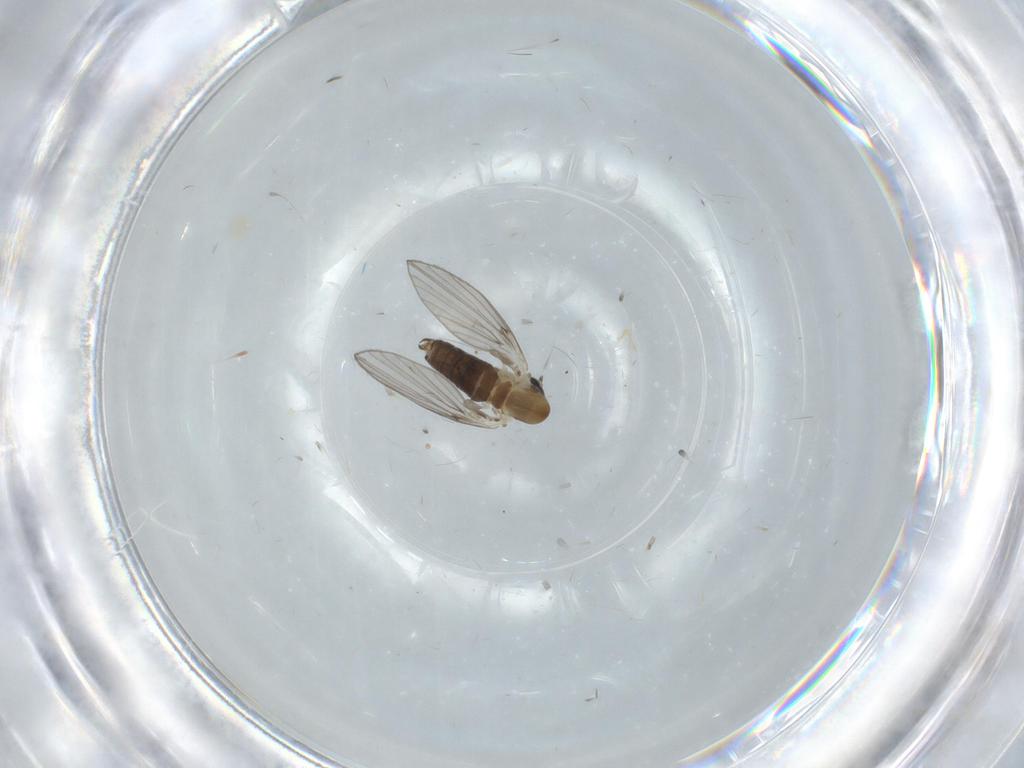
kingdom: Animalia
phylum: Arthropoda
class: Insecta
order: Diptera
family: Psychodidae
